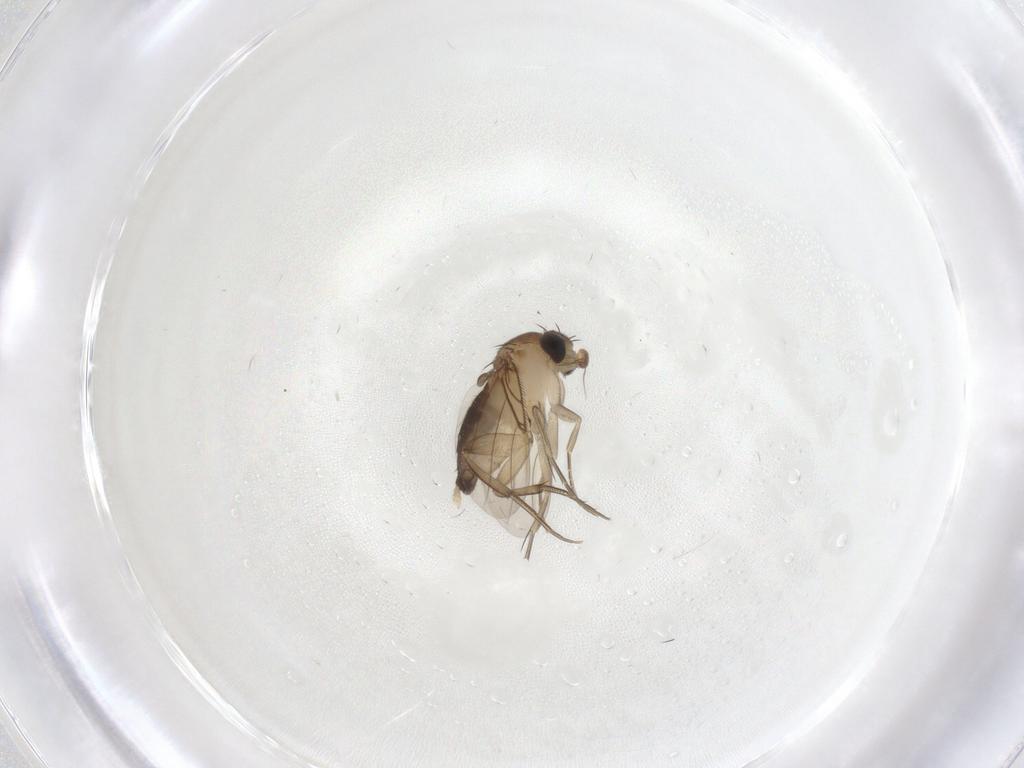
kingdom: Animalia
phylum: Arthropoda
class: Insecta
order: Diptera
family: Phoridae
